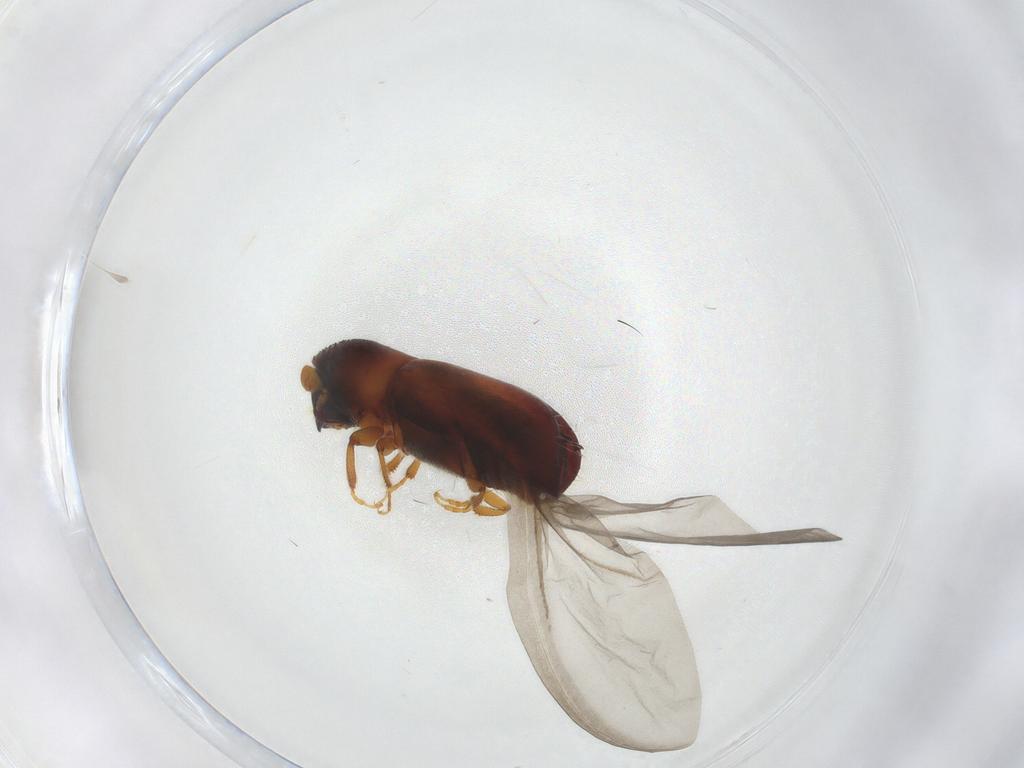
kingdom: Animalia
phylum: Arthropoda
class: Insecta
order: Coleoptera
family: Curculionidae
